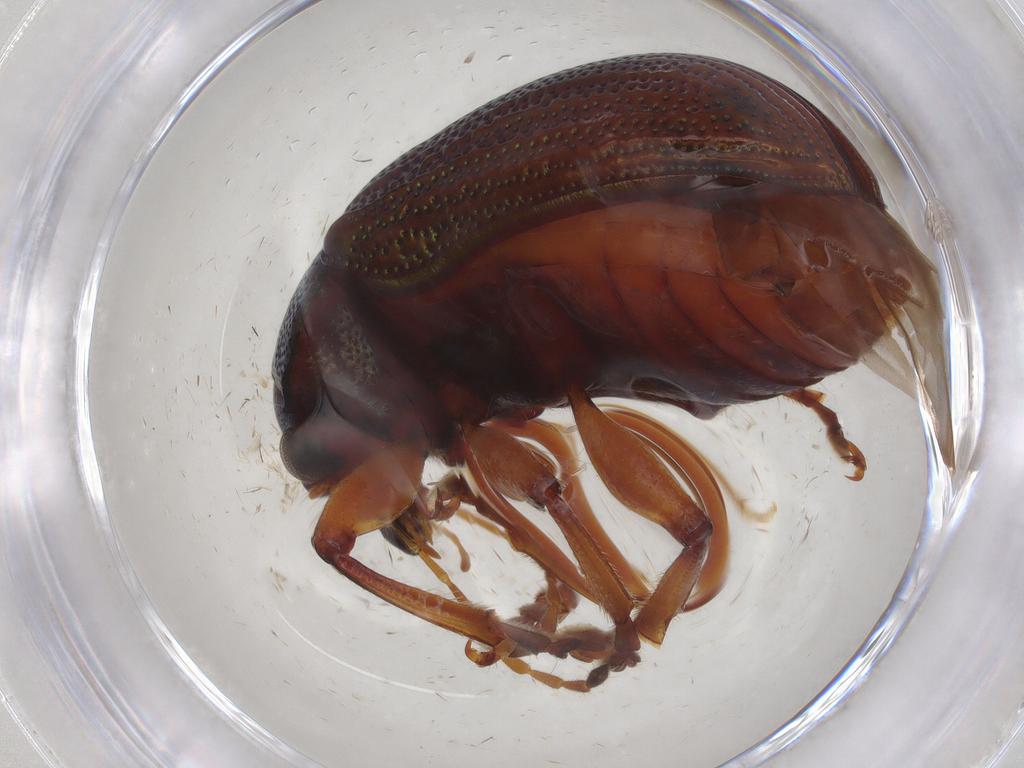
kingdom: Animalia
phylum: Arthropoda
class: Insecta
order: Coleoptera
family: Chrysomelidae
